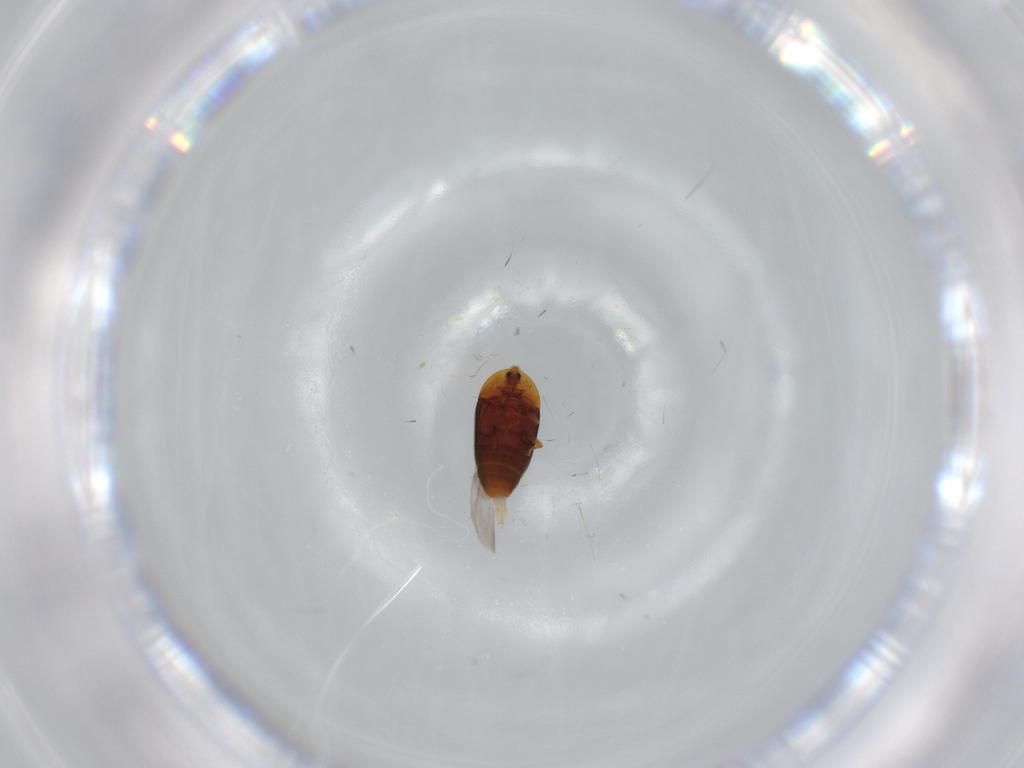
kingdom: Animalia
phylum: Arthropoda
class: Insecta
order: Coleoptera
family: Corylophidae
